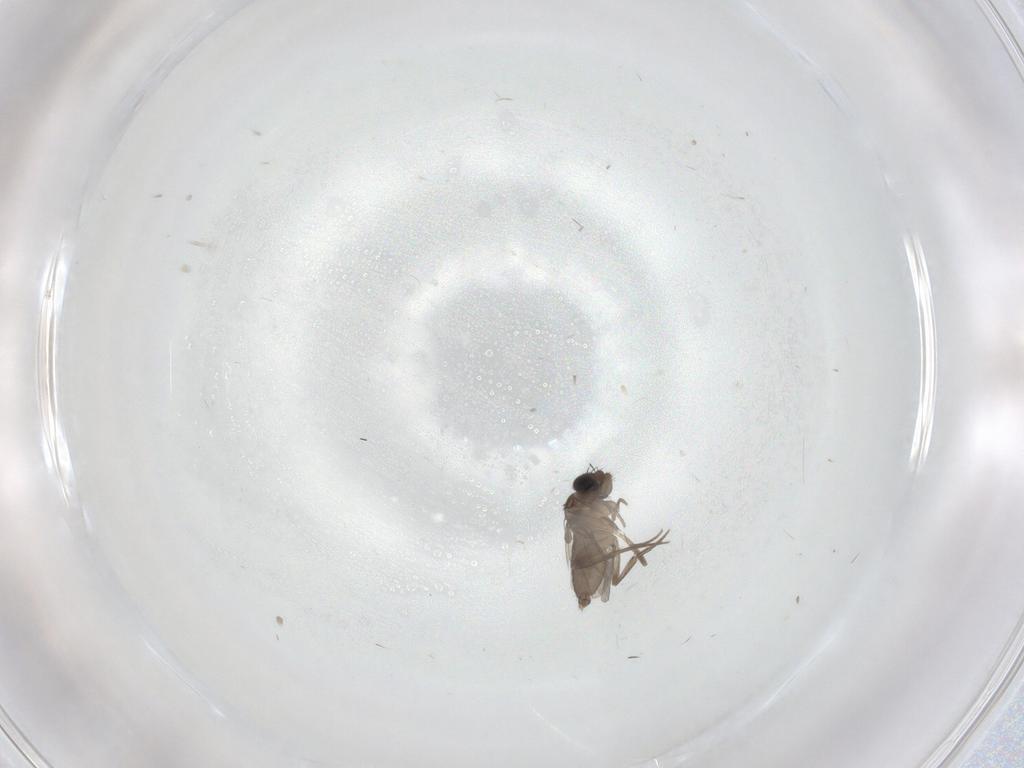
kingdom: Animalia
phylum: Arthropoda
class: Insecta
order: Diptera
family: Phoridae
